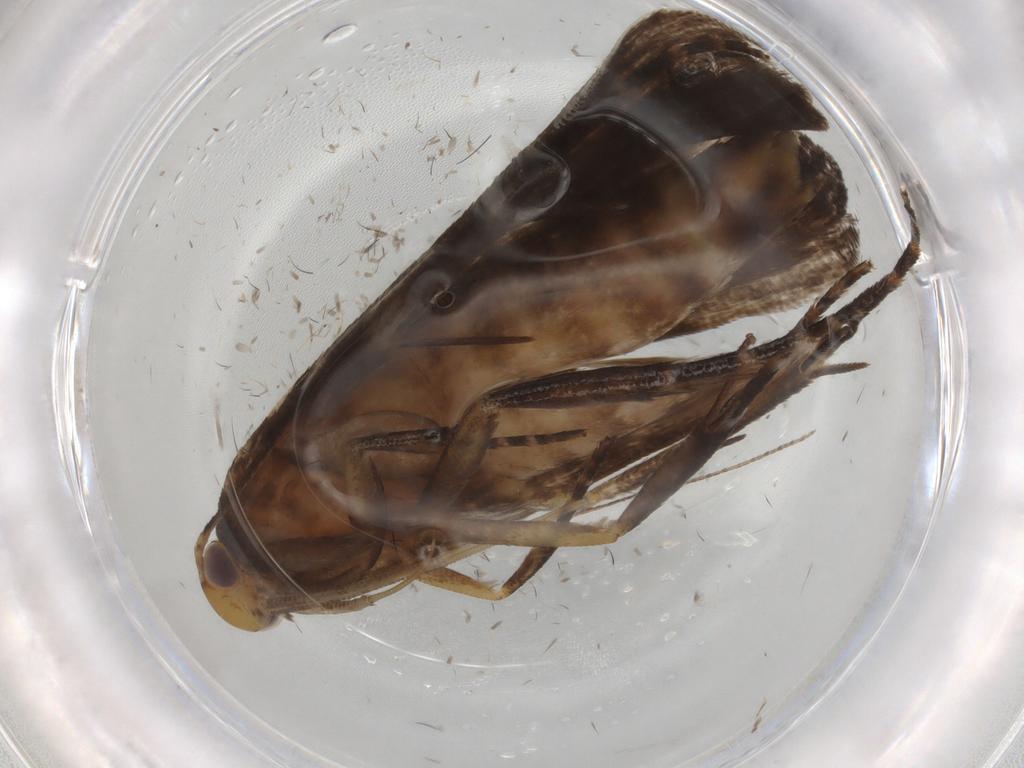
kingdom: Animalia
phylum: Arthropoda
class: Insecta
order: Lepidoptera
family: Gelechiidae
